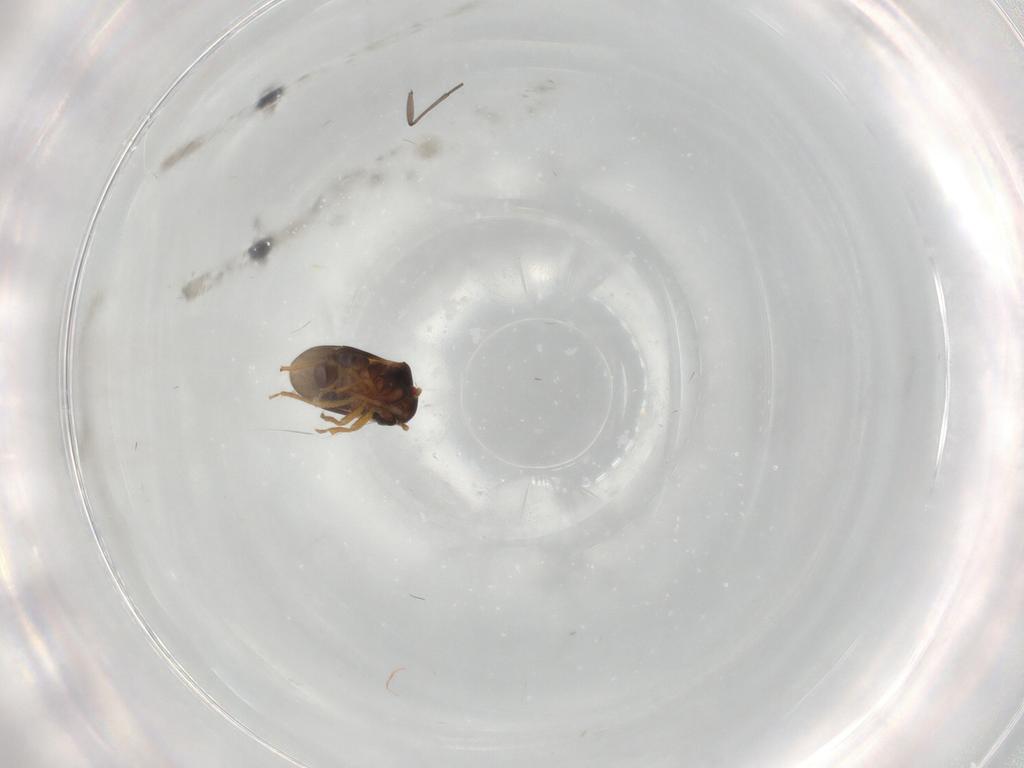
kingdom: Animalia
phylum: Arthropoda
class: Insecta
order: Hemiptera
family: Schizopteridae
